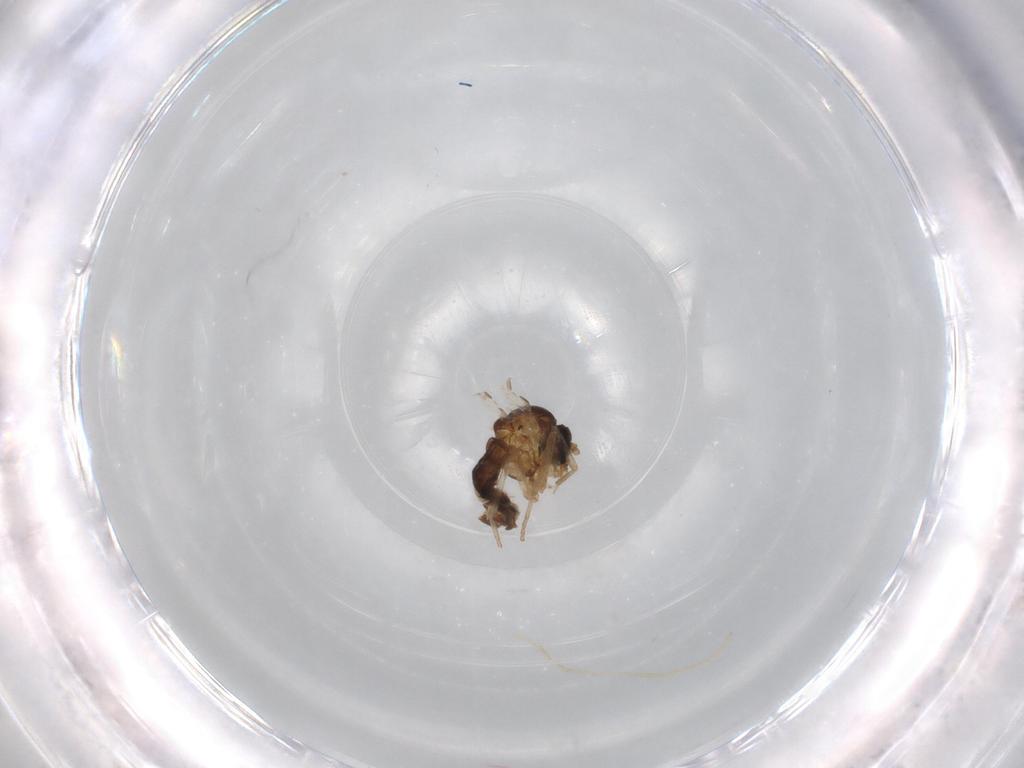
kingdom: Animalia
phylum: Arthropoda
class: Insecta
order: Diptera
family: Psychodidae
